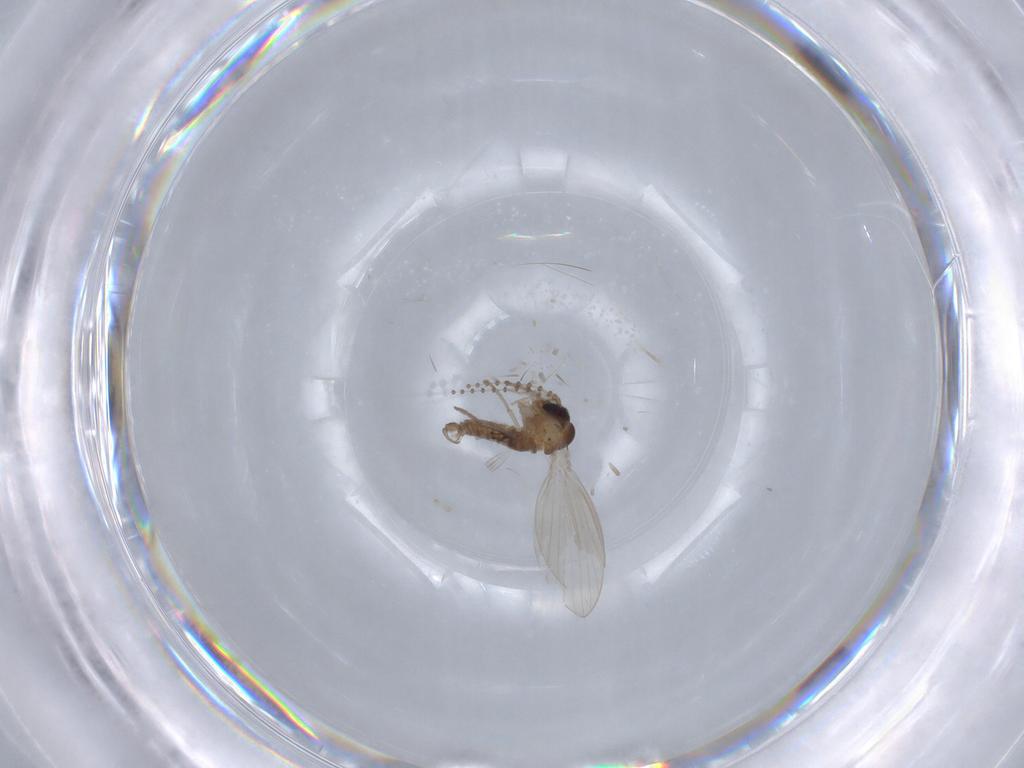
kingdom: Animalia
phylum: Arthropoda
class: Insecta
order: Diptera
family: Psychodidae
